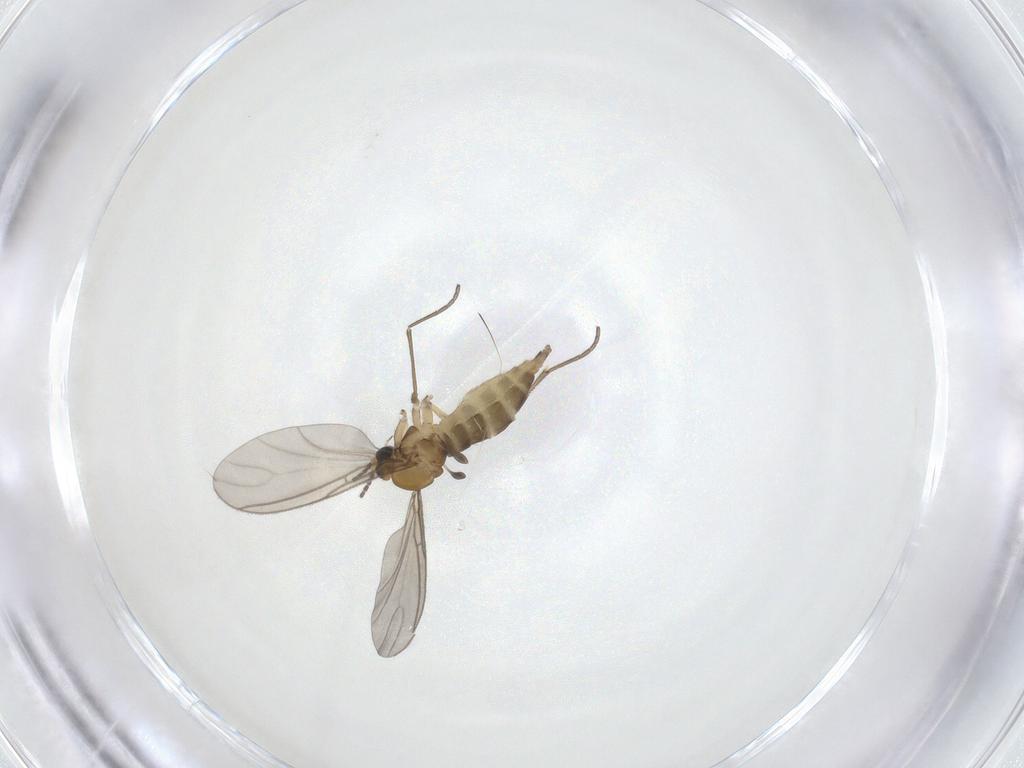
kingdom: Animalia
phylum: Arthropoda
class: Insecta
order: Diptera
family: Sciaridae
